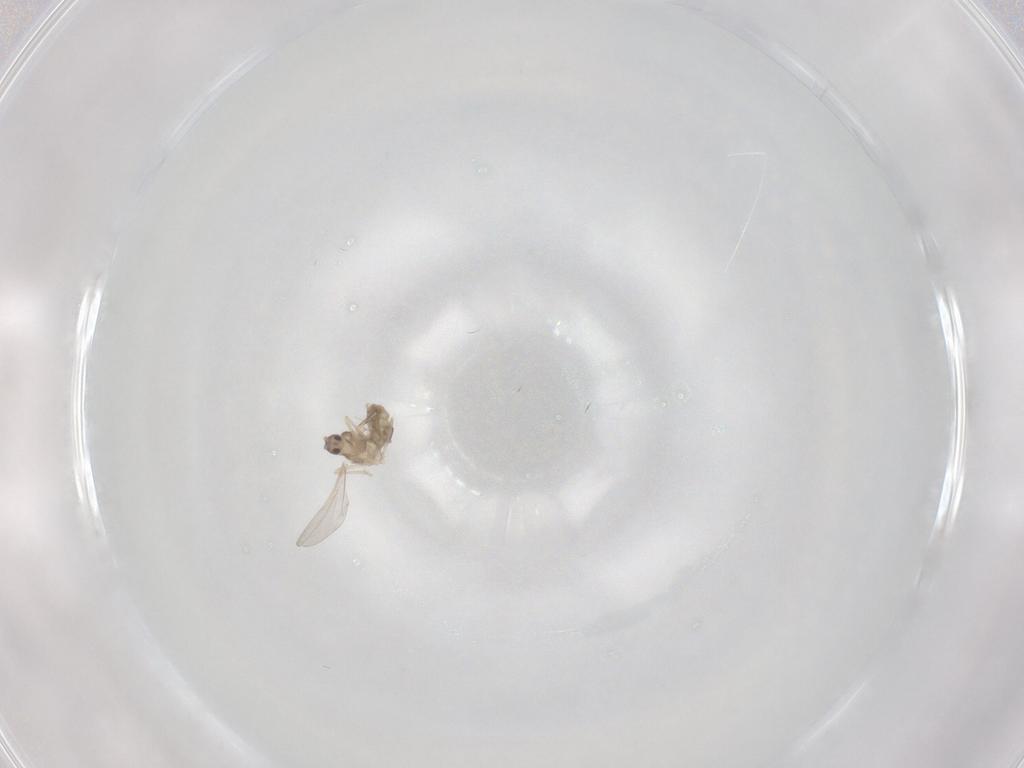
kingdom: Animalia
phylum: Arthropoda
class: Insecta
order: Diptera
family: Cecidomyiidae
